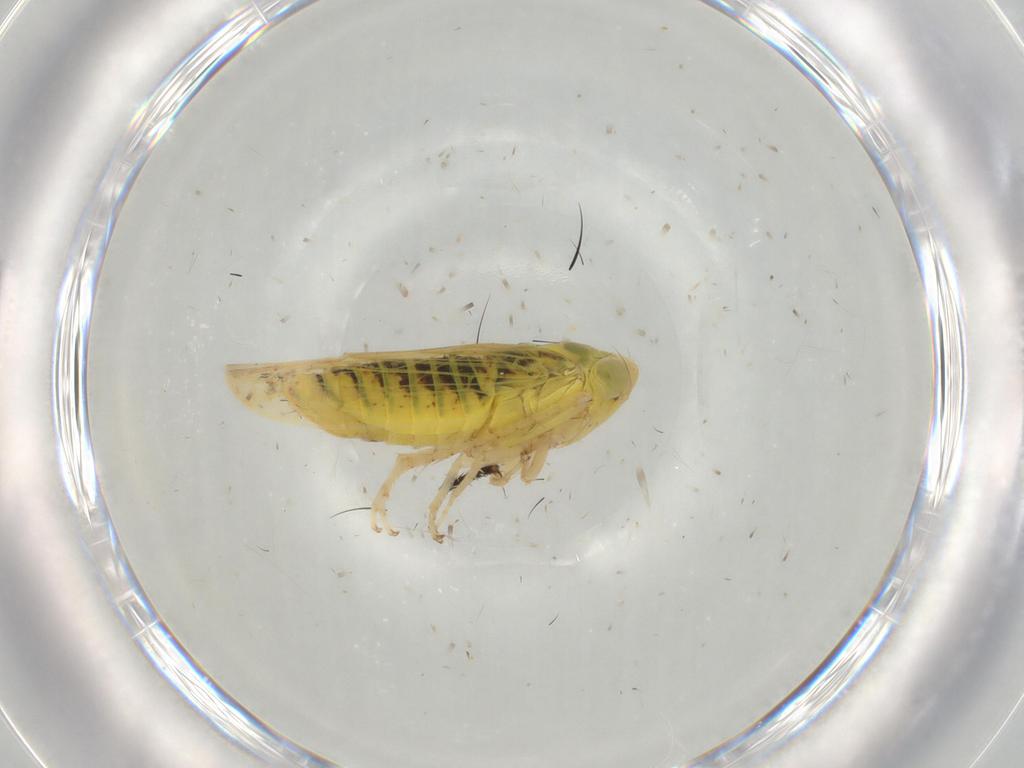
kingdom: Animalia
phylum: Arthropoda
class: Insecta
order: Hemiptera
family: Cicadellidae
